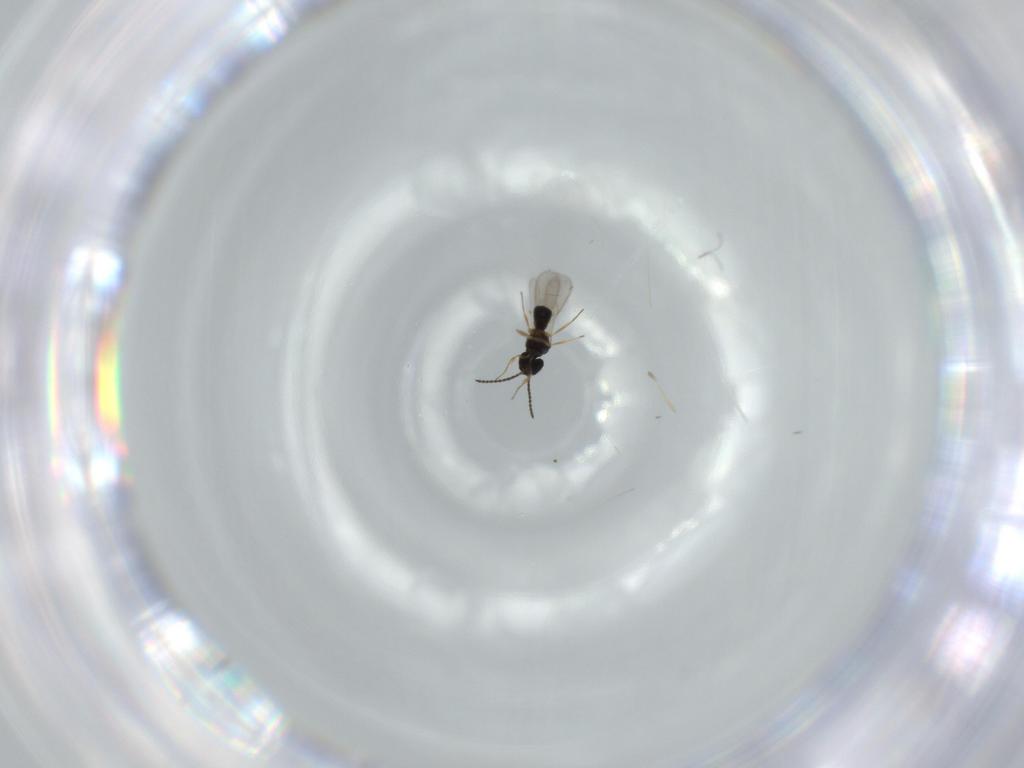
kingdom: Animalia
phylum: Arthropoda
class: Insecta
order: Hymenoptera
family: Scelionidae
